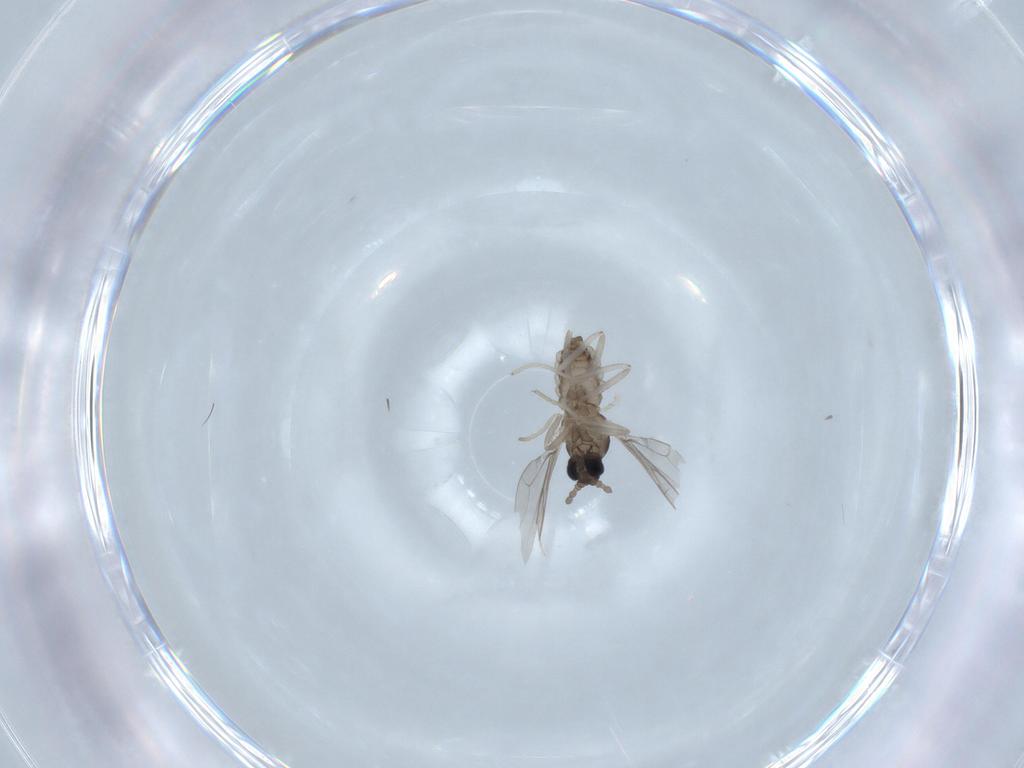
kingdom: Animalia
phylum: Arthropoda
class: Insecta
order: Diptera
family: Cecidomyiidae
